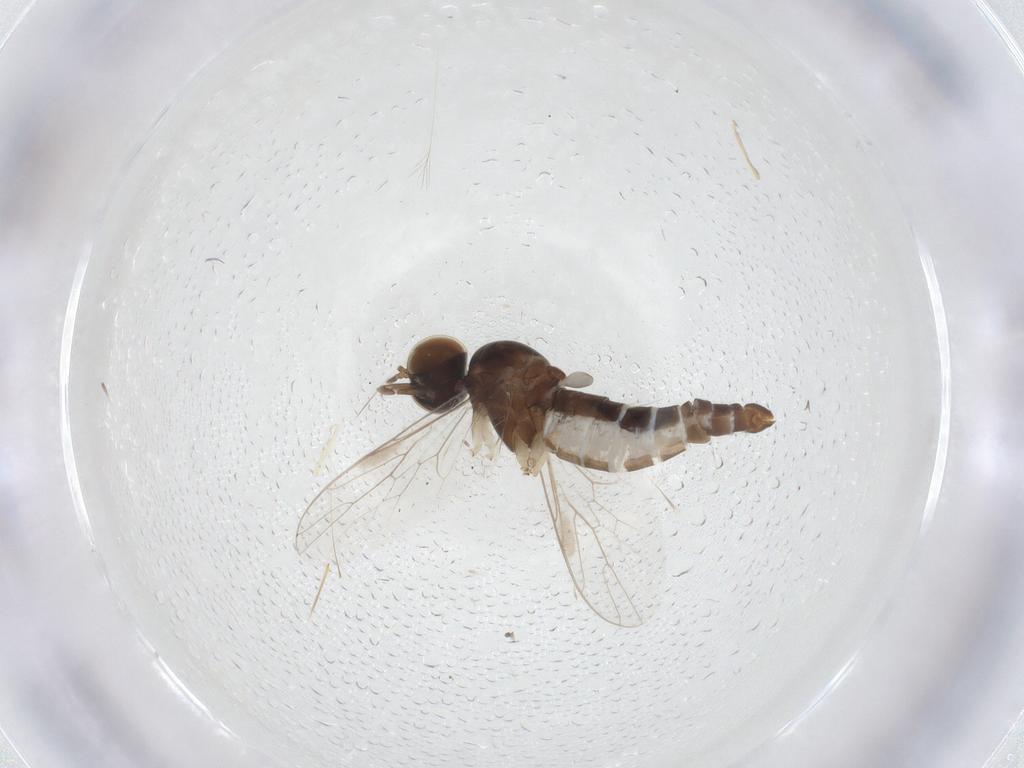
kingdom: Animalia
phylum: Arthropoda
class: Insecta
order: Diptera
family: Scenopinidae
